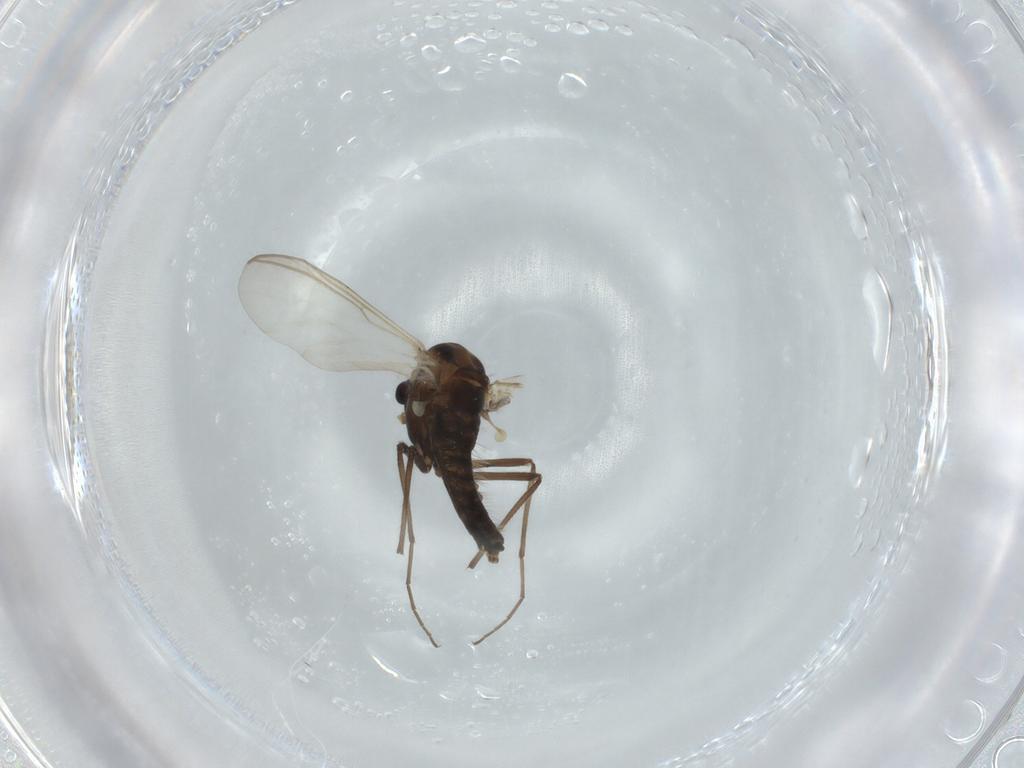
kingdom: Animalia
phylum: Arthropoda
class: Insecta
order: Diptera
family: Chironomidae
